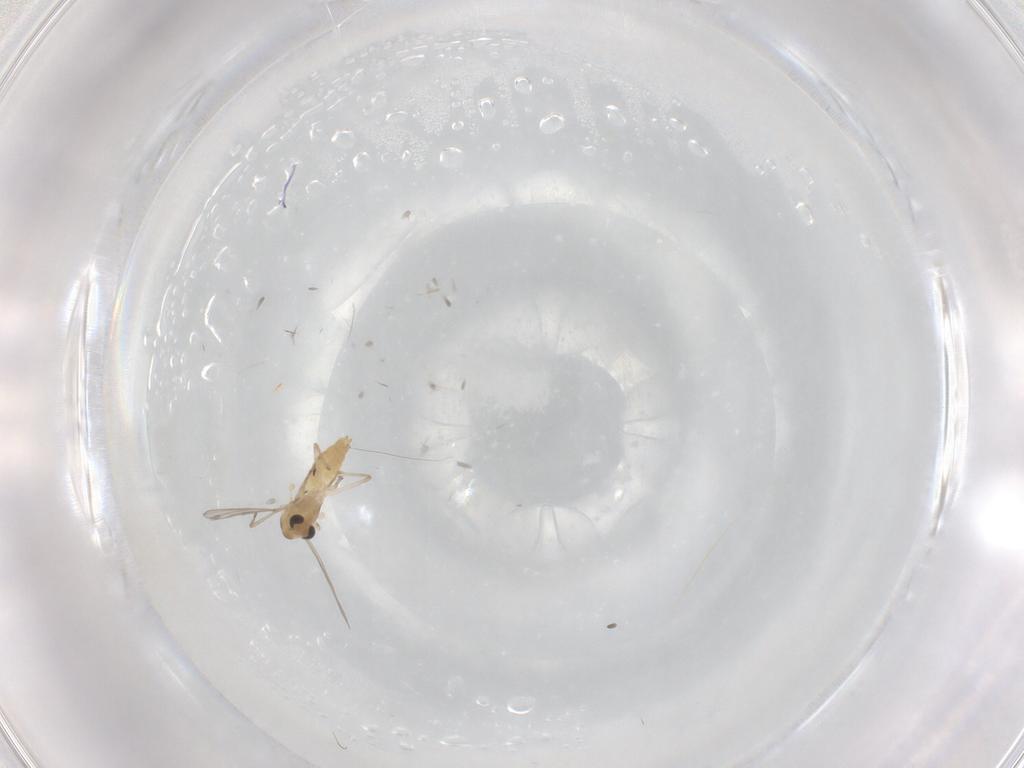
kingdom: Animalia
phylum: Arthropoda
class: Insecta
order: Diptera
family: Chironomidae
